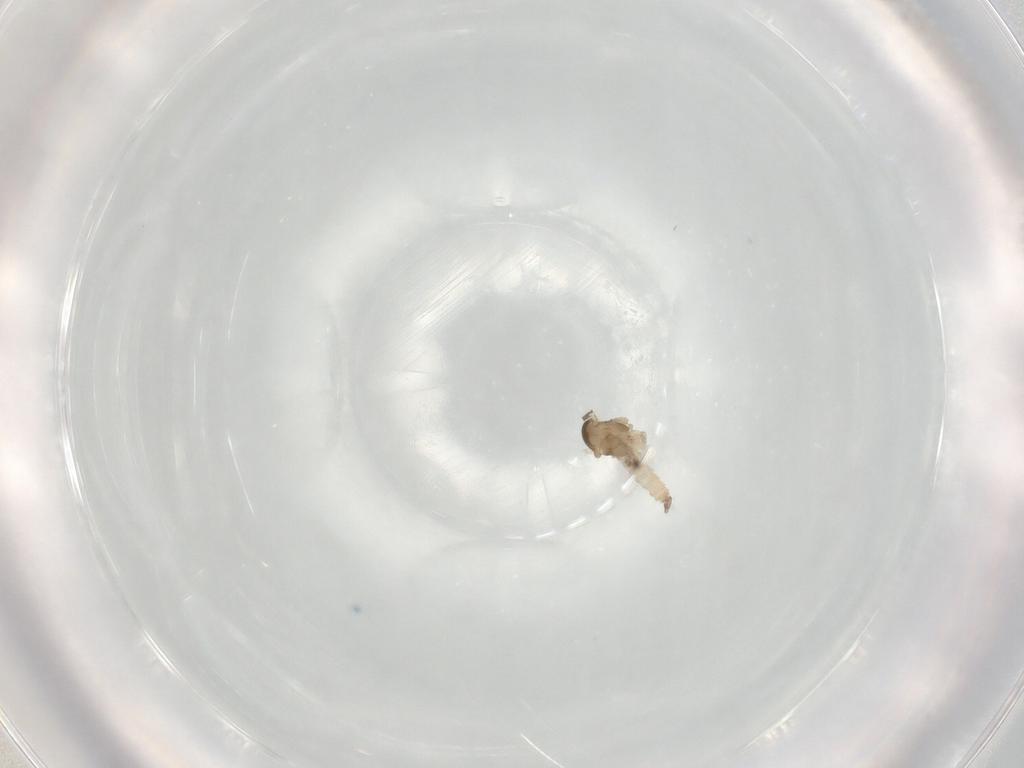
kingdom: Animalia
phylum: Arthropoda
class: Insecta
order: Diptera
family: Cecidomyiidae
